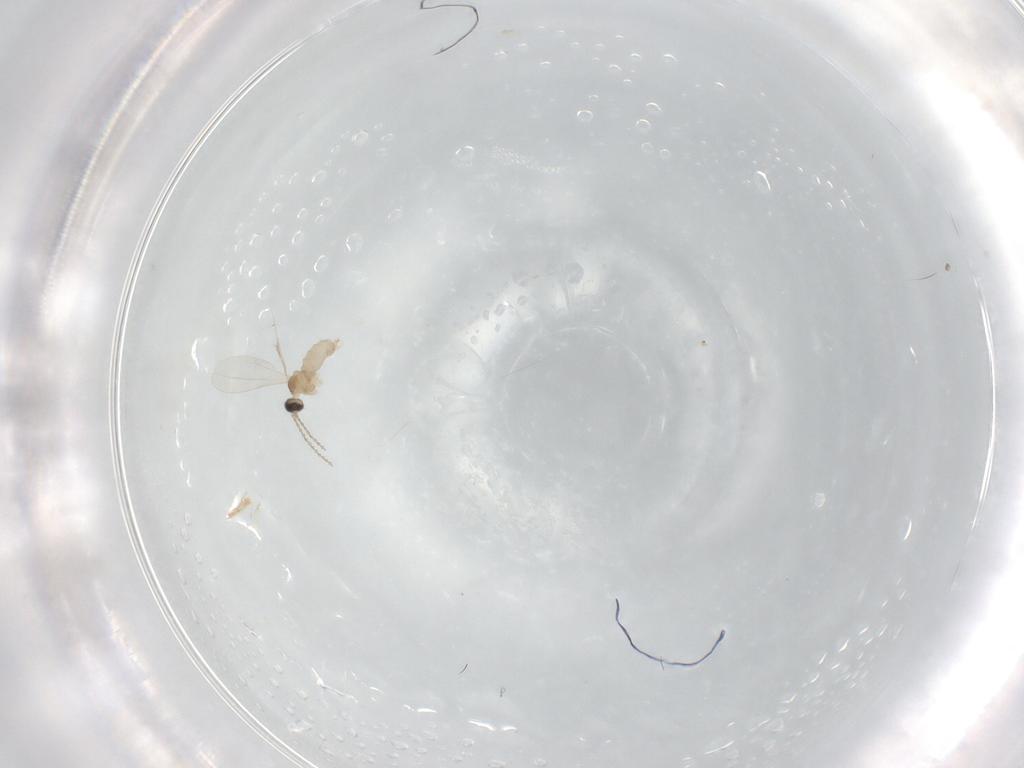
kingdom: Animalia
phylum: Arthropoda
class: Insecta
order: Diptera
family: Cecidomyiidae
